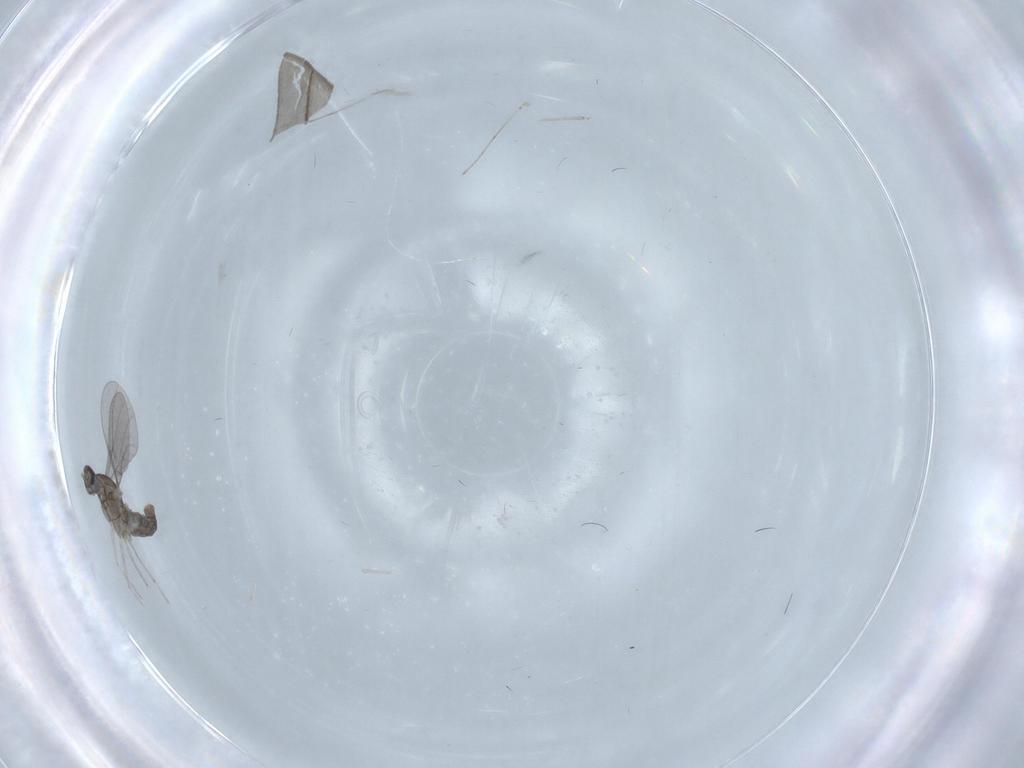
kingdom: Animalia
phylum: Arthropoda
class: Insecta
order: Diptera
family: Cecidomyiidae
